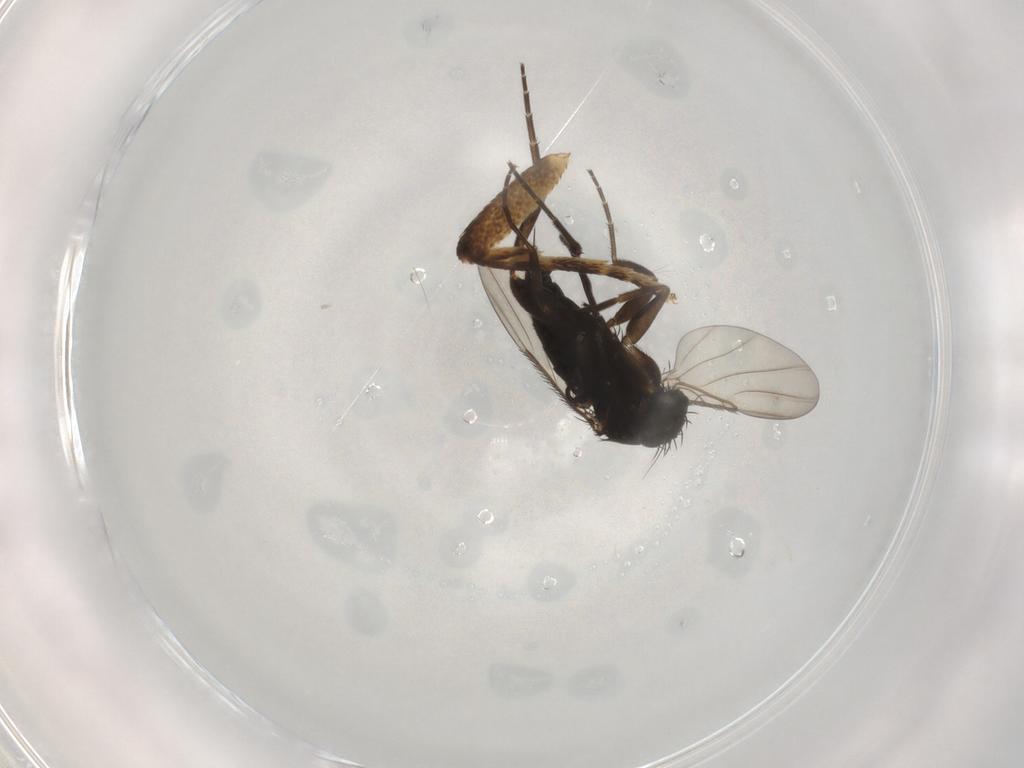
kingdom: Animalia
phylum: Arthropoda
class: Insecta
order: Diptera
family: Phoridae
